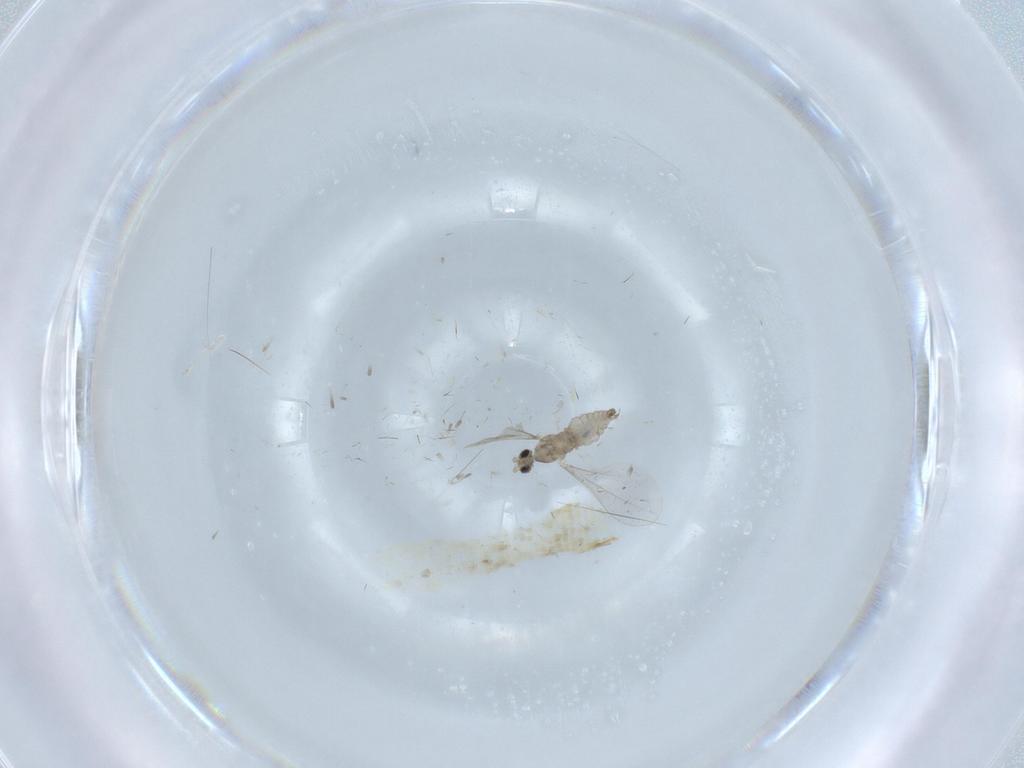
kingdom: Animalia
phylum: Arthropoda
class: Insecta
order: Diptera
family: Cecidomyiidae
